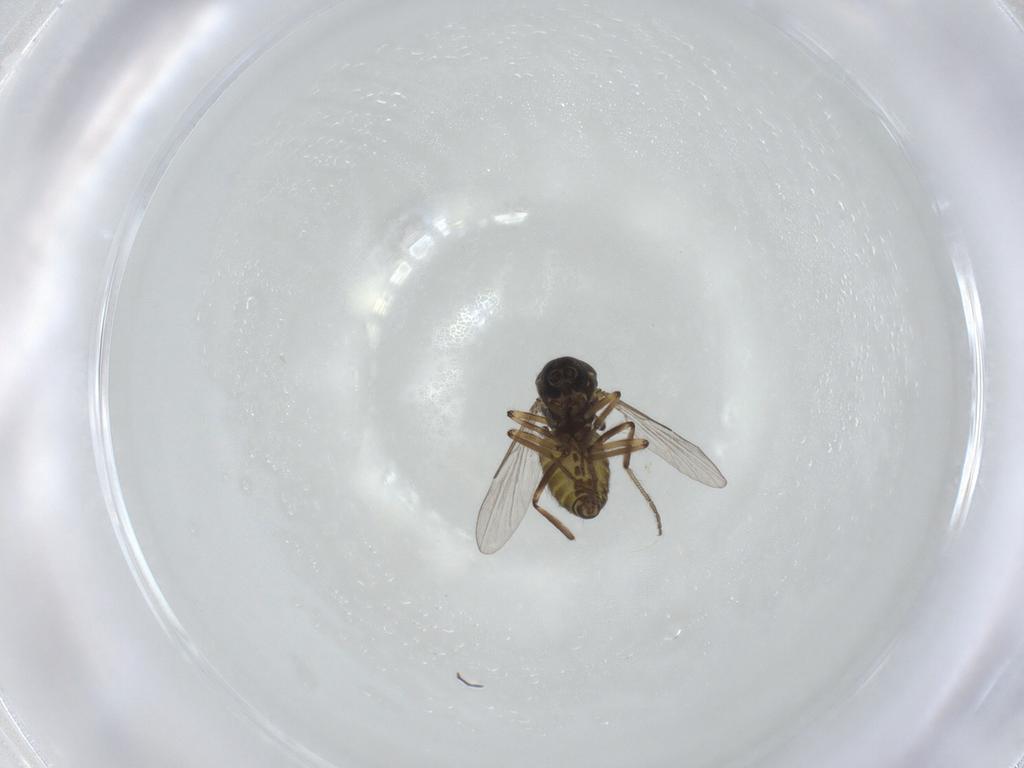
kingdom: Animalia
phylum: Arthropoda
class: Insecta
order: Diptera
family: Ceratopogonidae
